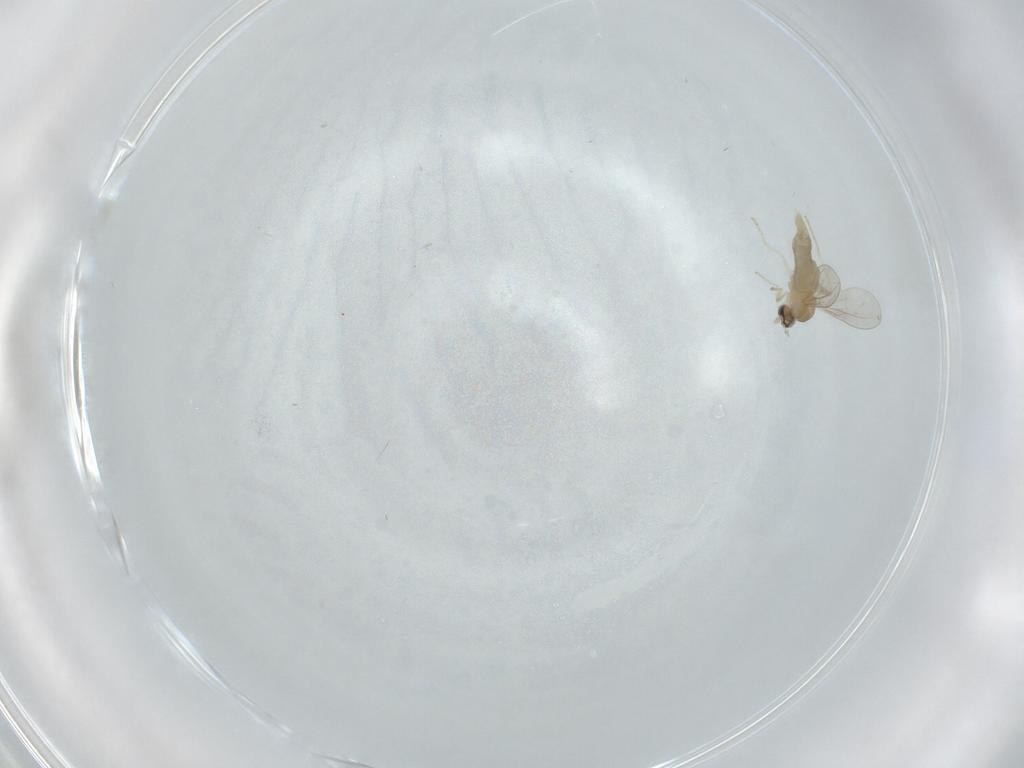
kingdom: Animalia
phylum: Arthropoda
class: Insecta
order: Diptera
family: Cecidomyiidae
